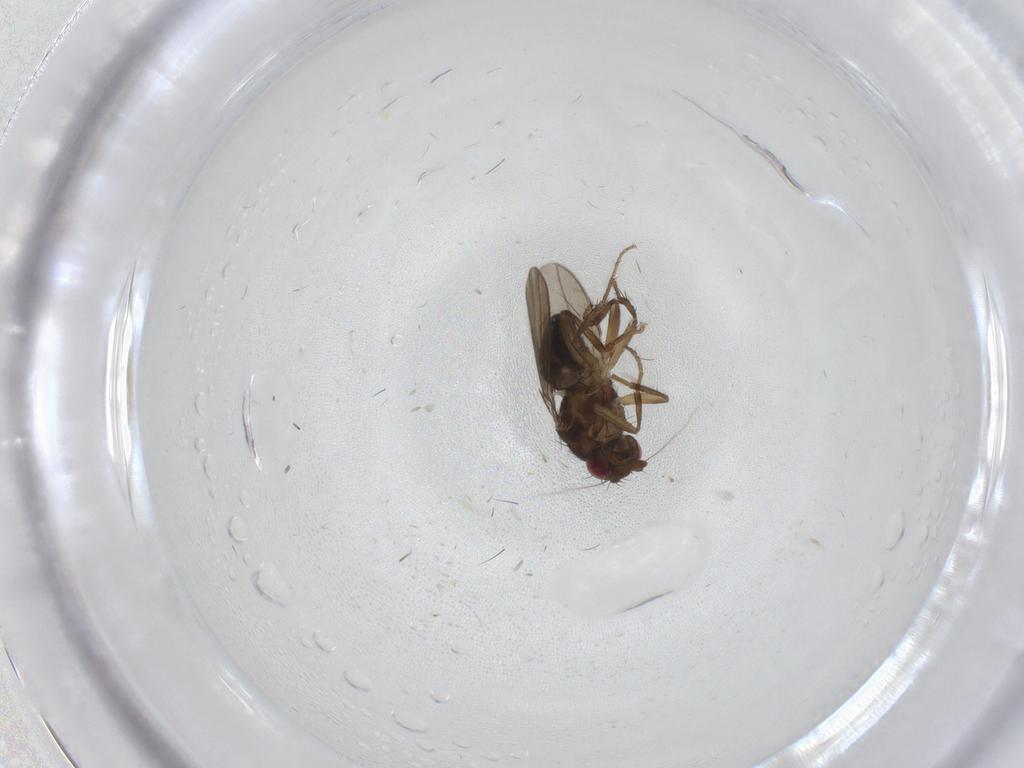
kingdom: Animalia
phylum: Arthropoda
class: Insecta
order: Diptera
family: Sphaeroceridae
